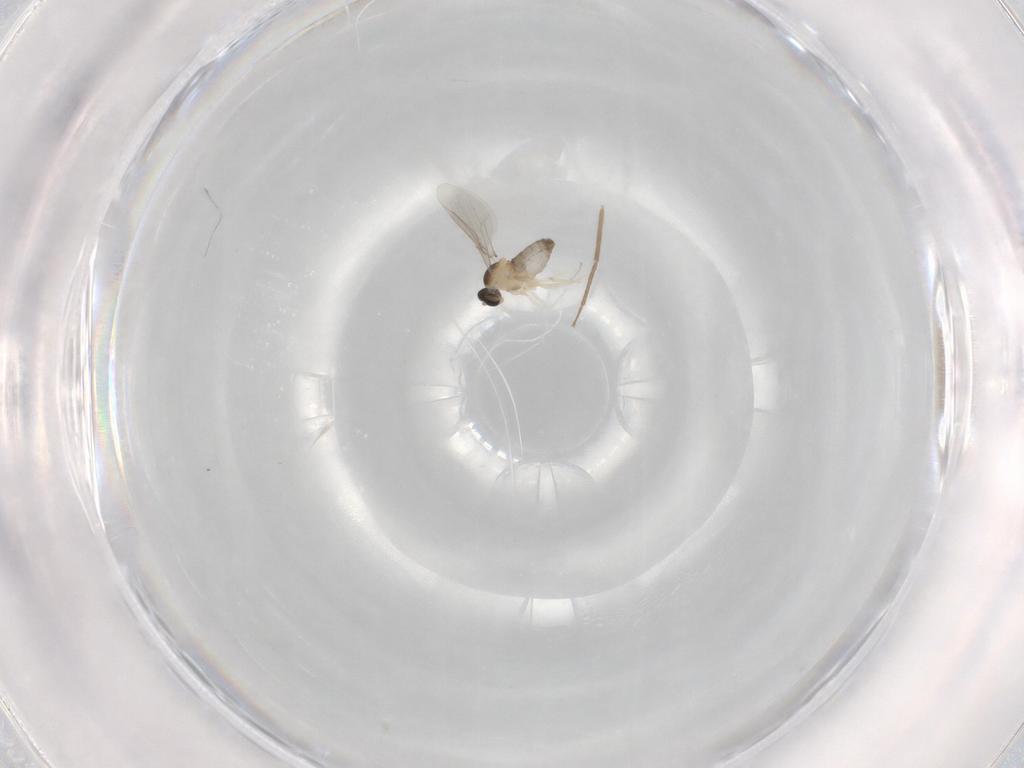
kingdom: Animalia
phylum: Arthropoda
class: Insecta
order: Diptera
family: Cecidomyiidae
